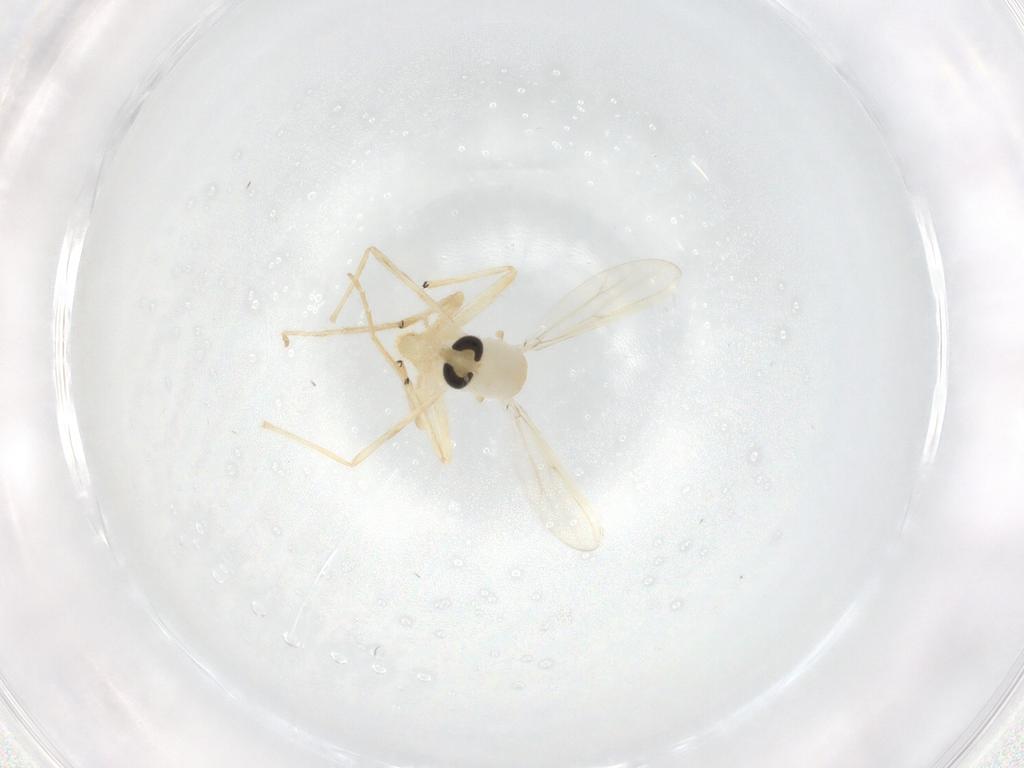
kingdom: Animalia
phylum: Arthropoda
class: Insecta
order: Diptera
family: Chironomidae
